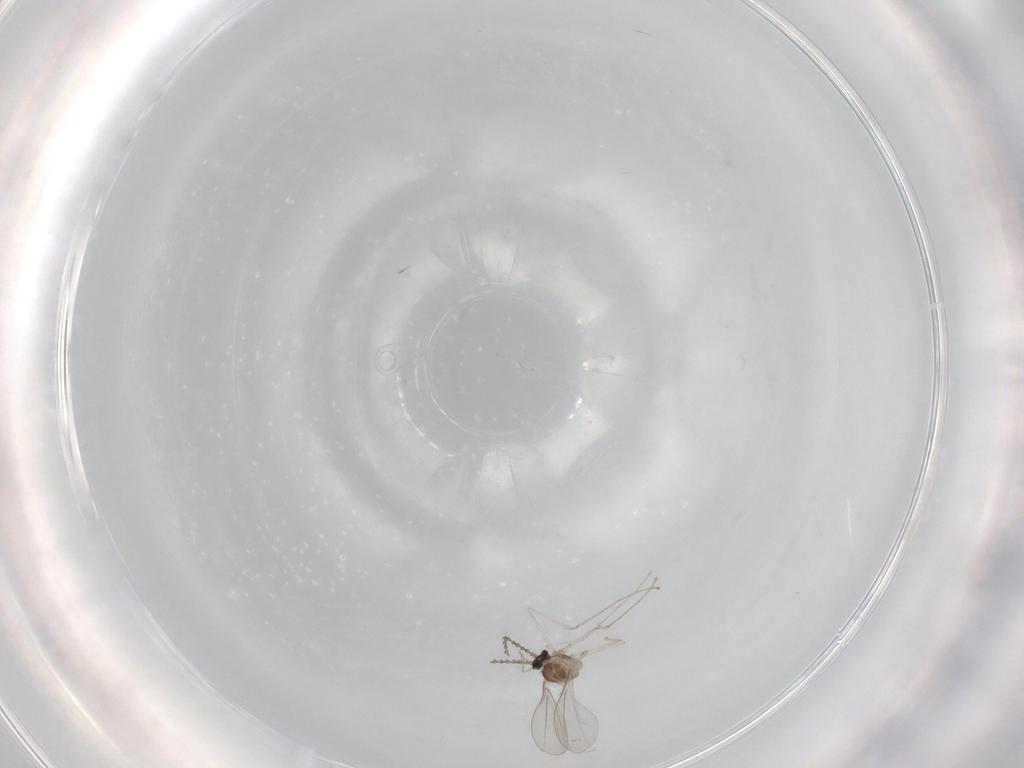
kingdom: Animalia
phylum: Arthropoda
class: Insecta
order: Diptera
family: Cecidomyiidae
